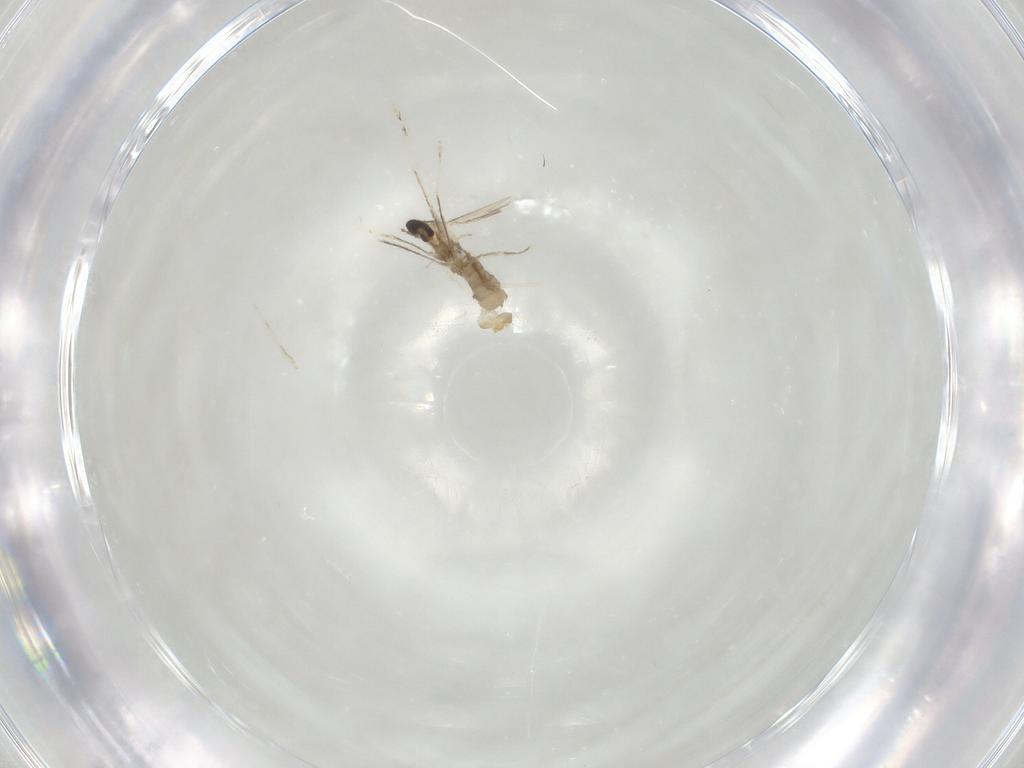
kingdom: Animalia
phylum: Arthropoda
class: Insecta
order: Diptera
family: Cecidomyiidae
